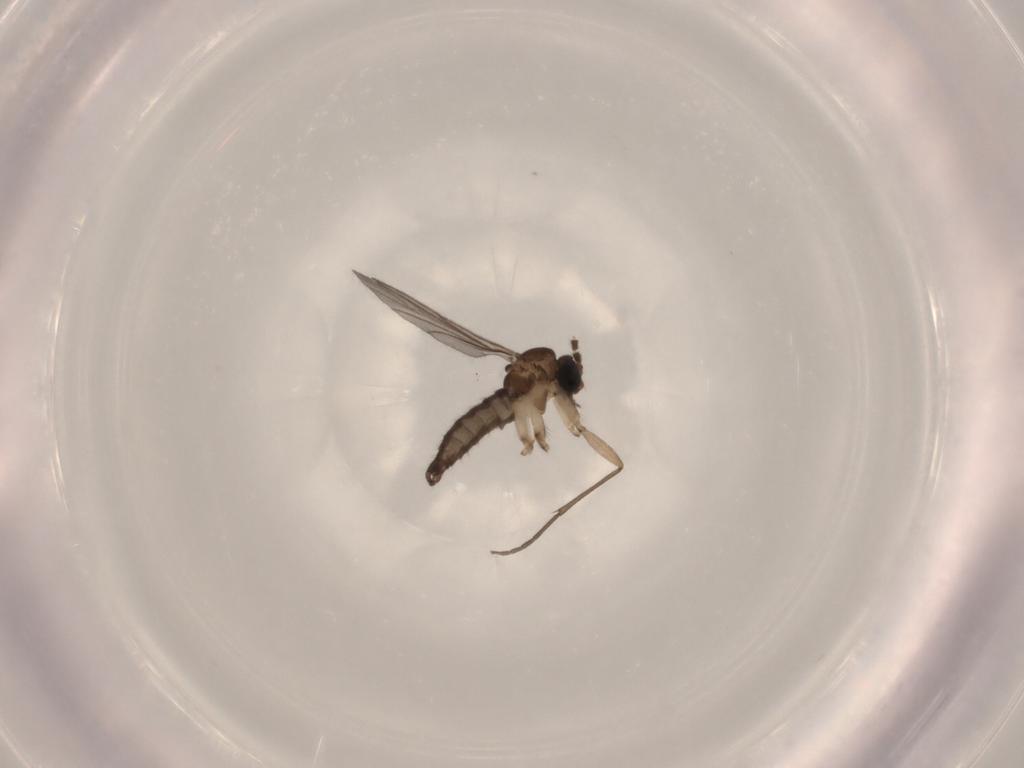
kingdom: Animalia
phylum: Arthropoda
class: Insecta
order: Diptera
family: Sciaridae
